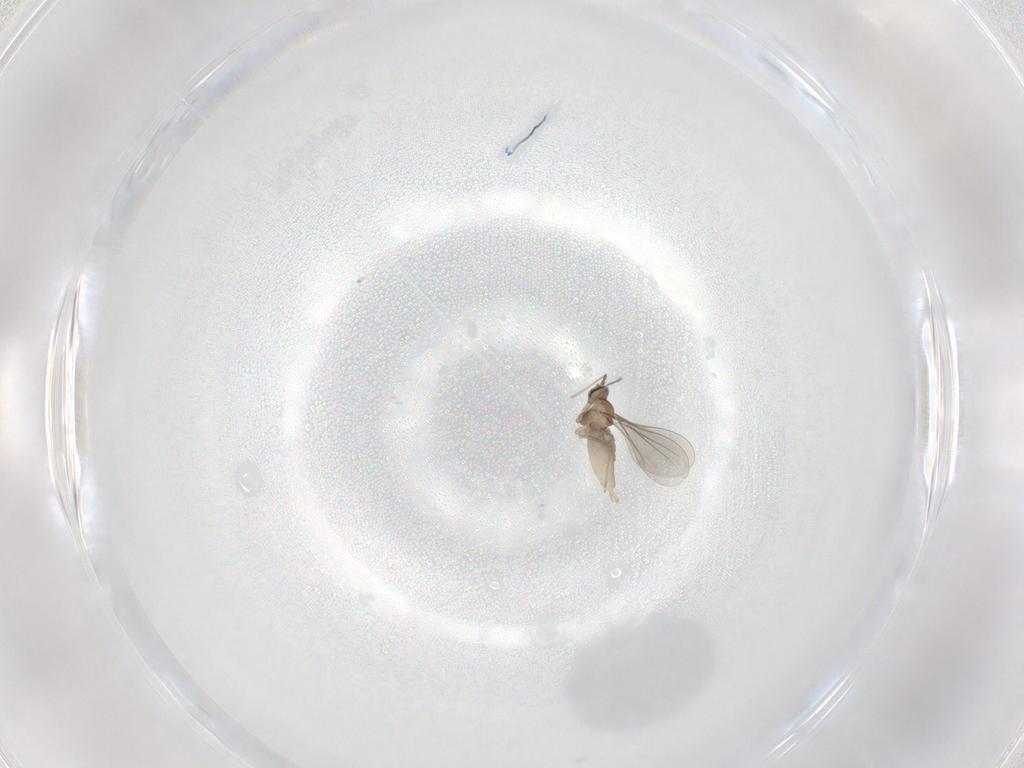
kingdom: Animalia
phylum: Arthropoda
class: Insecta
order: Diptera
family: Cecidomyiidae
